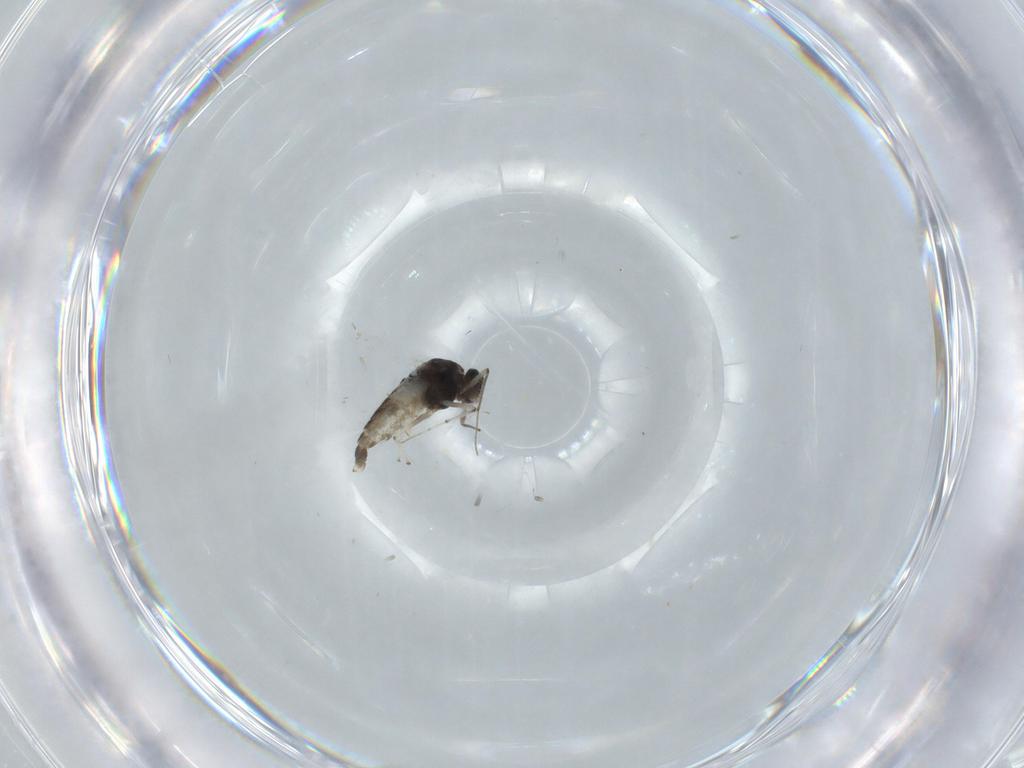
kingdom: Animalia
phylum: Arthropoda
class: Insecta
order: Diptera
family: Chironomidae
